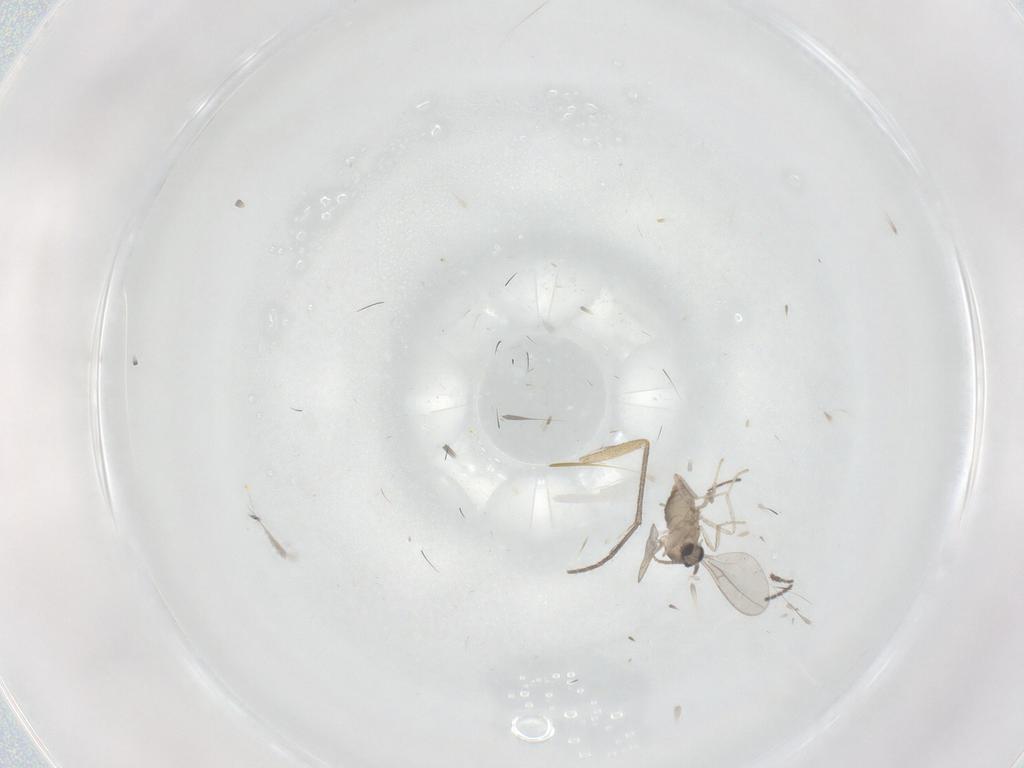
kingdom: Animalia
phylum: Arthropoda
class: Insecta
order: Diptera
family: Sciaridae
